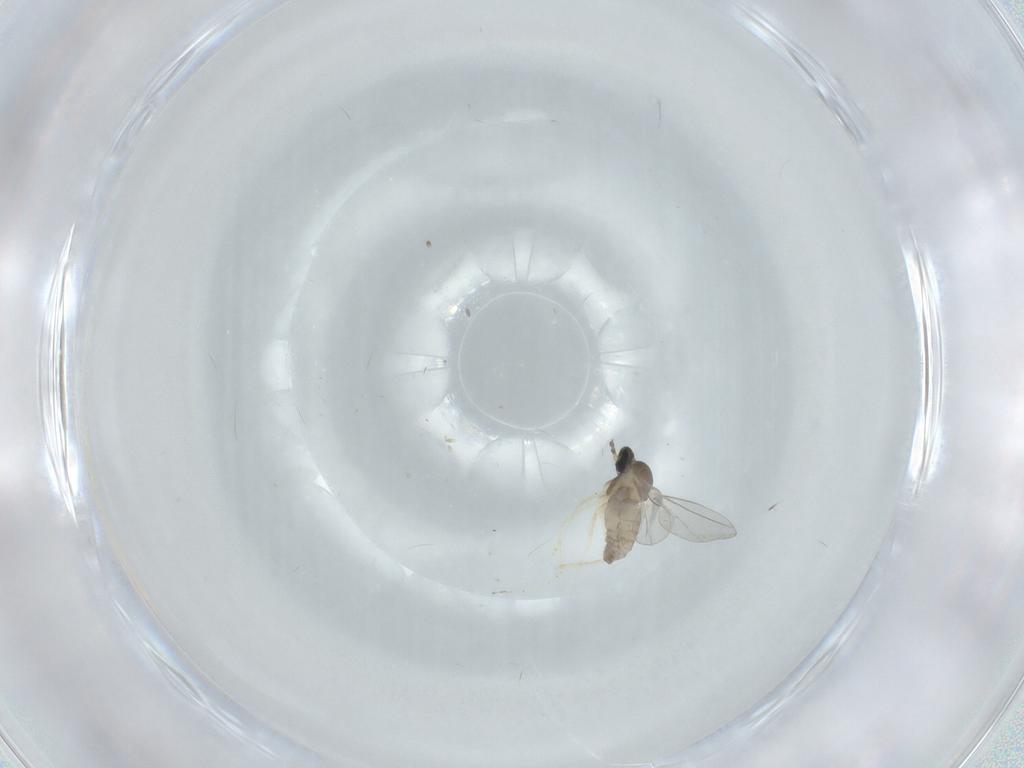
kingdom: Animalia
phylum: Arthropoda
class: Insecta
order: Diptera
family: Cecidomyiidae
